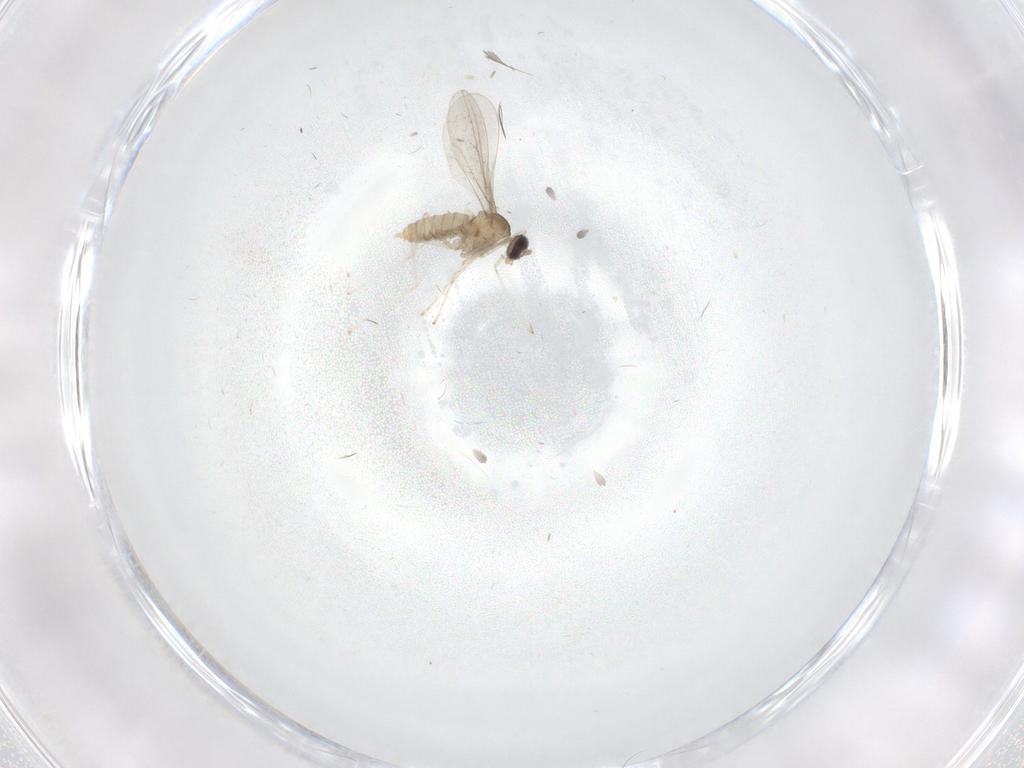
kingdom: Animalia
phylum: Arthropoda
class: Insecta
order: Diptera
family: Cecidomyiidae
